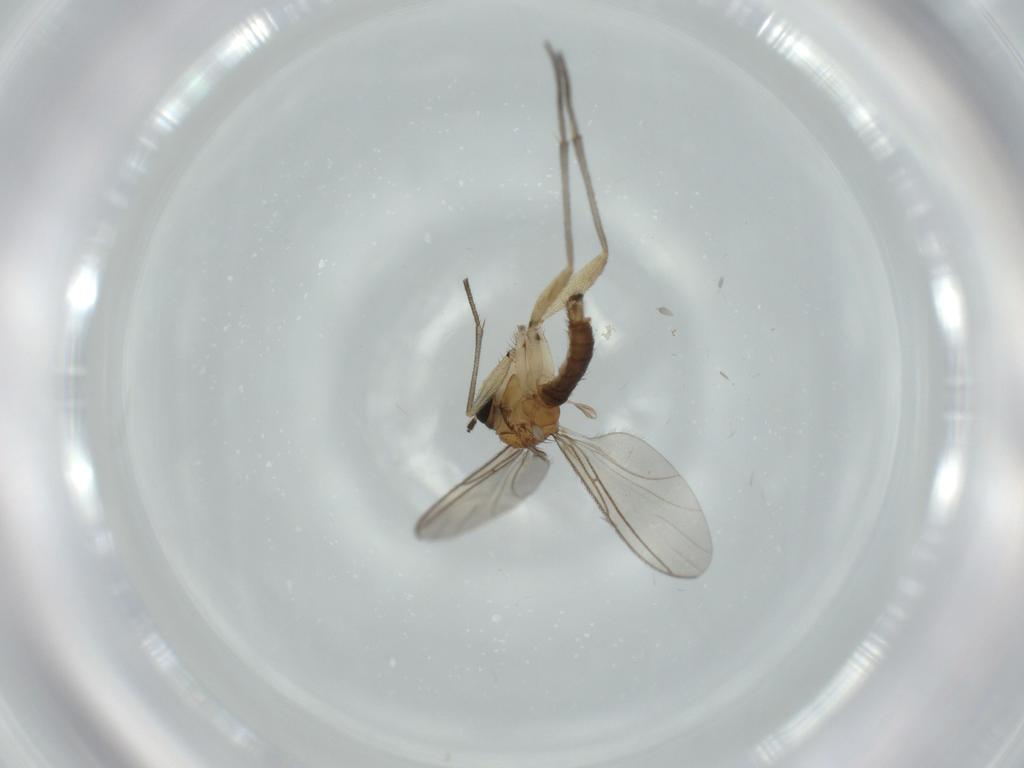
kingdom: Animalia
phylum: Arthropoda
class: Insecta
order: Diptera
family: Sciaridae
